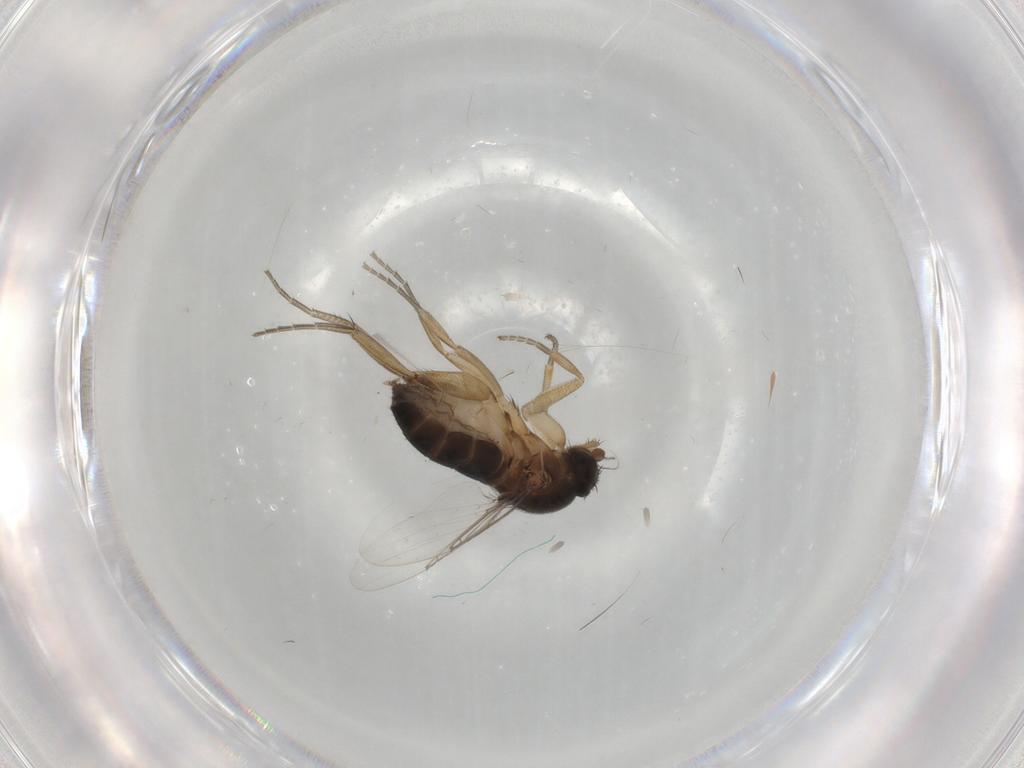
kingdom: Animalia
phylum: Arthropoda
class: Insecta
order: Diptera
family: Phoridae
